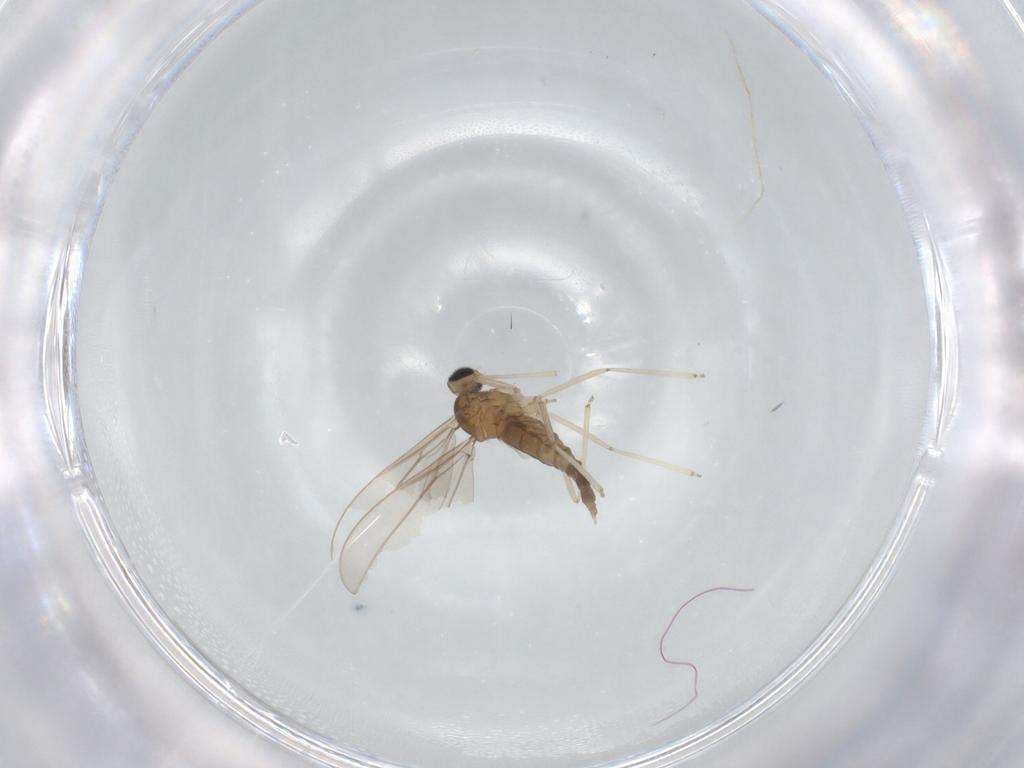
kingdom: Animalia
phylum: Arthropoda
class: Insecta
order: Diptera
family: Cecidomyiidae
